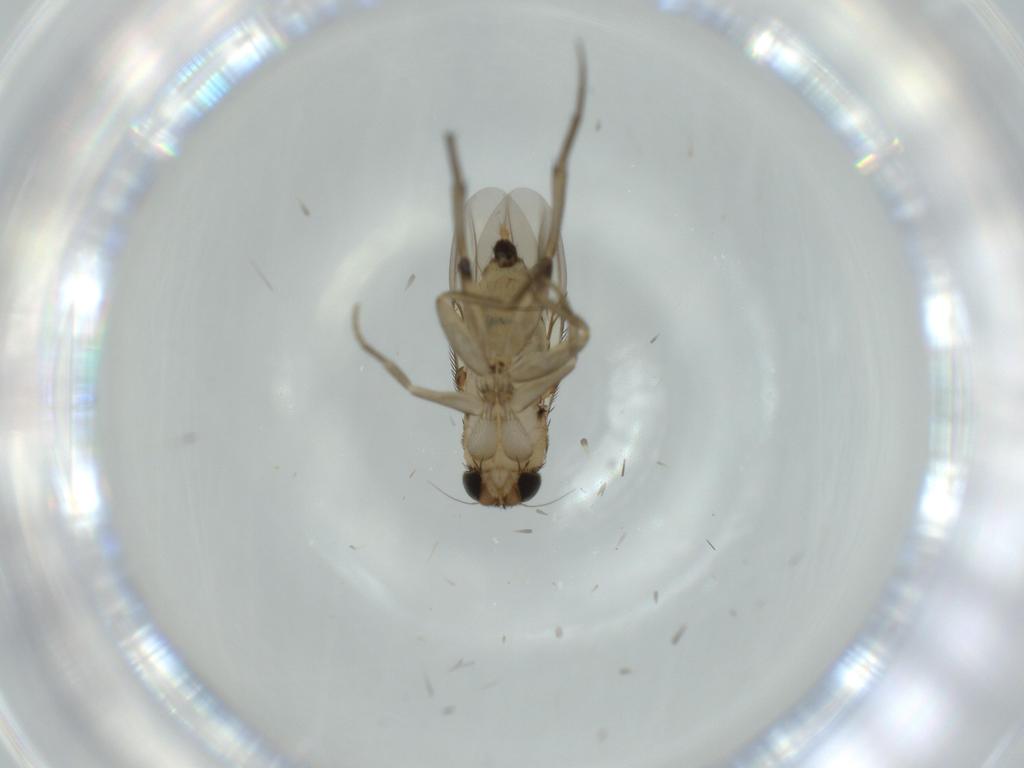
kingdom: Animalia
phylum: Arthropoda
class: Insecta
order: Diptera
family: Phoridae
